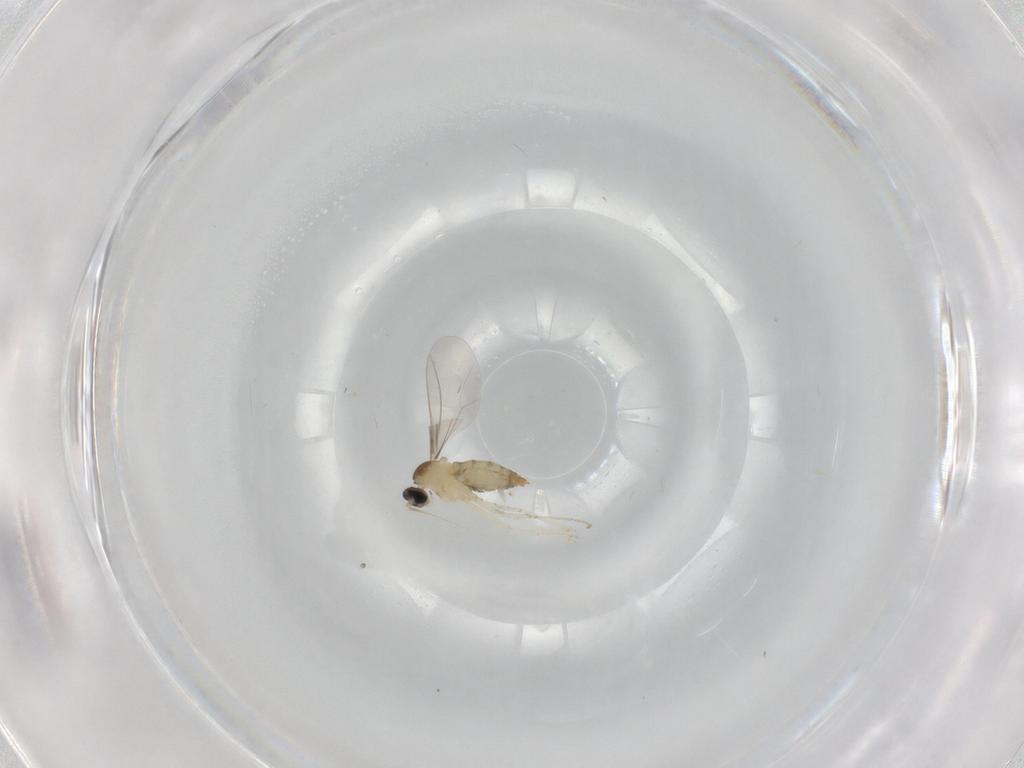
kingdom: Animalia
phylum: Arthropoda
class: Insecta
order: Diptera
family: Cecidomyiidae
